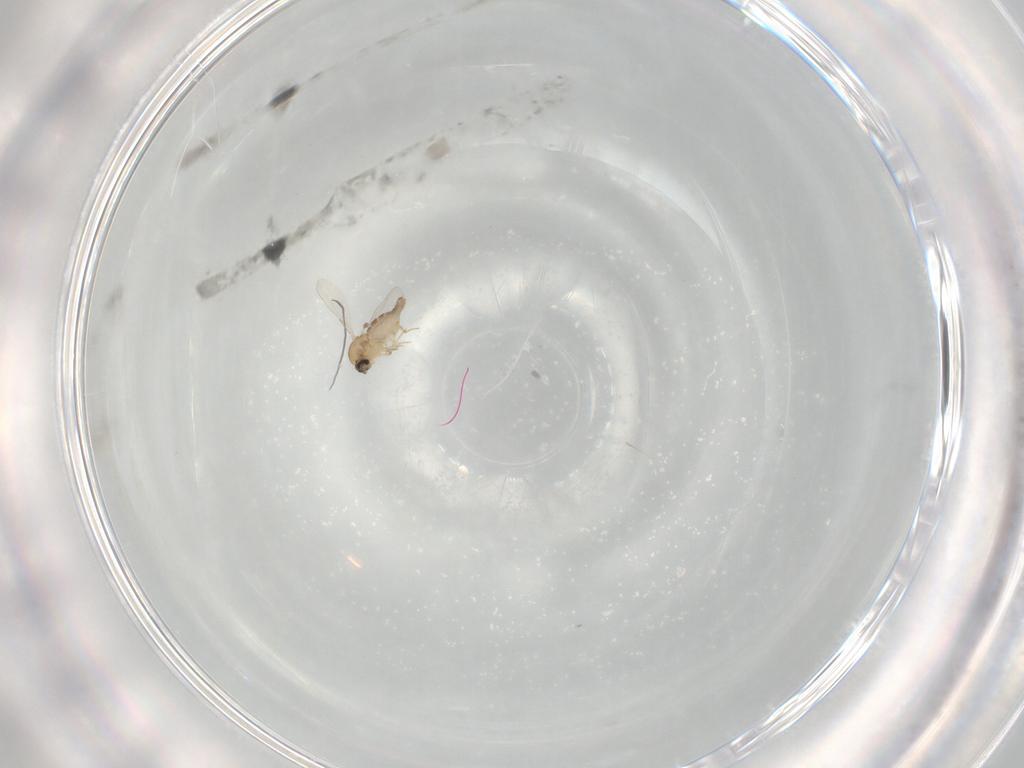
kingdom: Animalia
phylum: Arthropoda
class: Insecta
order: Diptera
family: Ceratopogonidae
